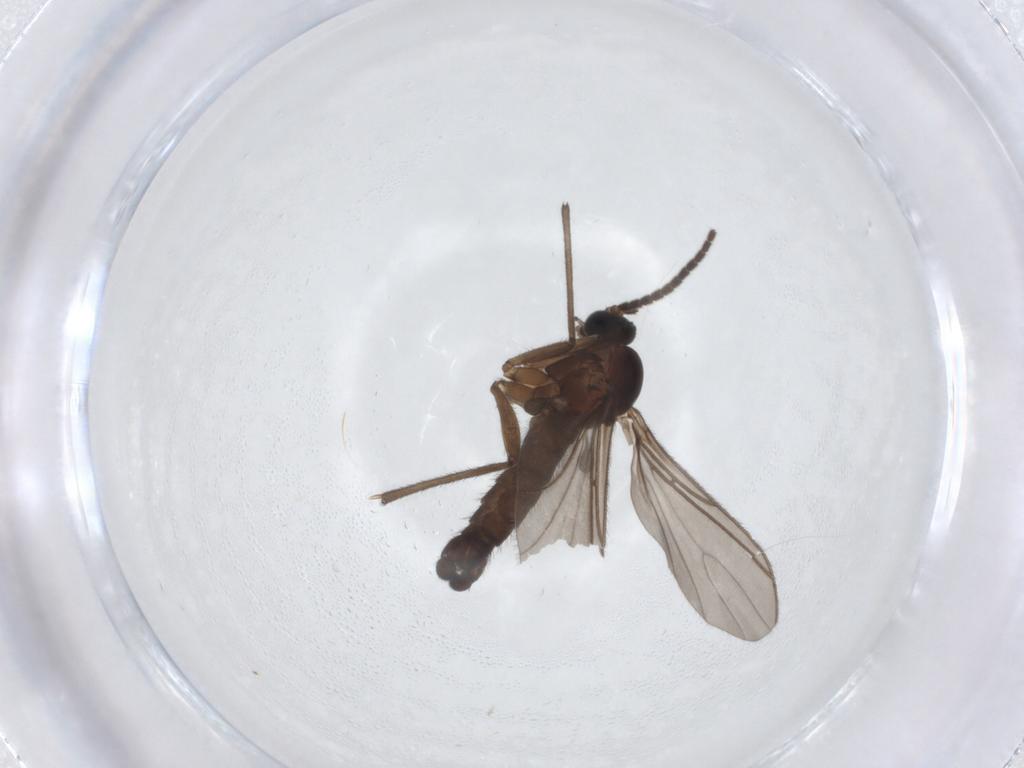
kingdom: Animalia
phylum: Arthropoda
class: Insecta
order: Diptera
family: Sciaridae
